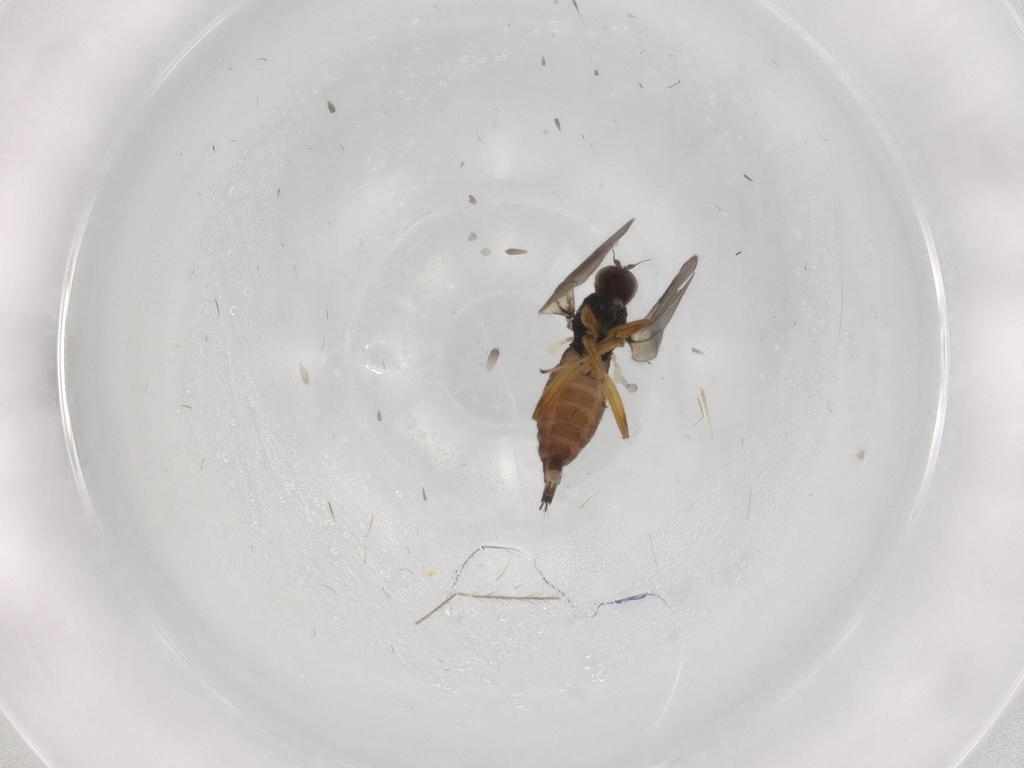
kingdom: Animalia
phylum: Arthropoda
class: Insecta
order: Diptera
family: Hybotidae
